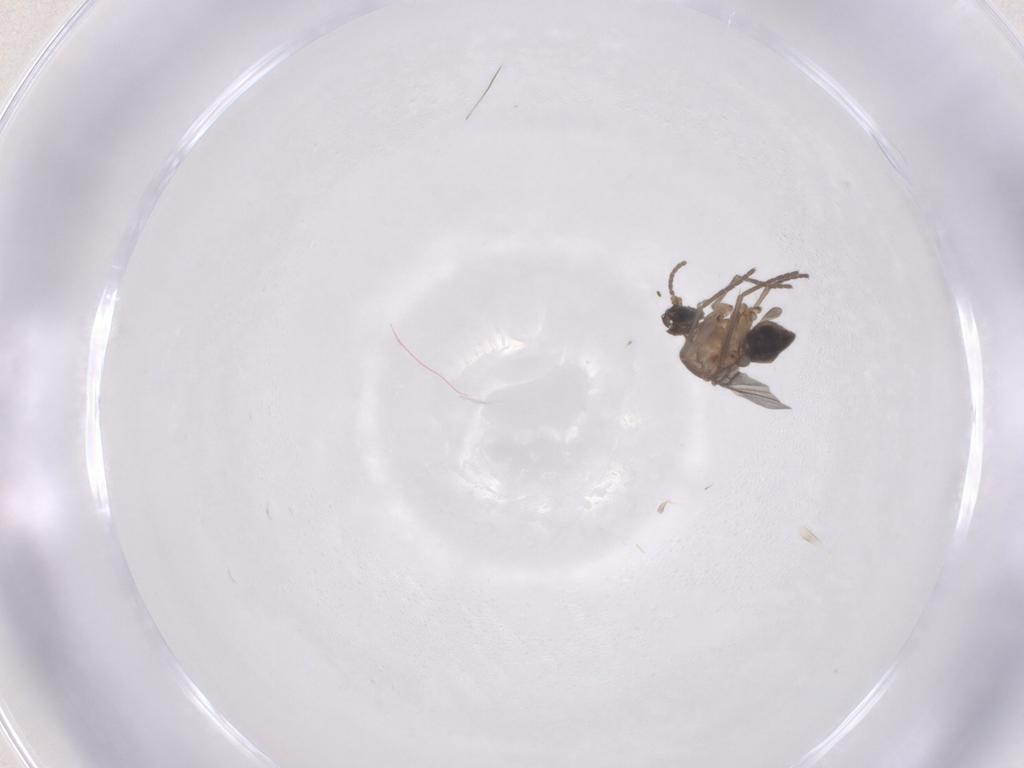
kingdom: Animalia
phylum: Arthropoda
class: Insecta
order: Diptera
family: Sciaridae
